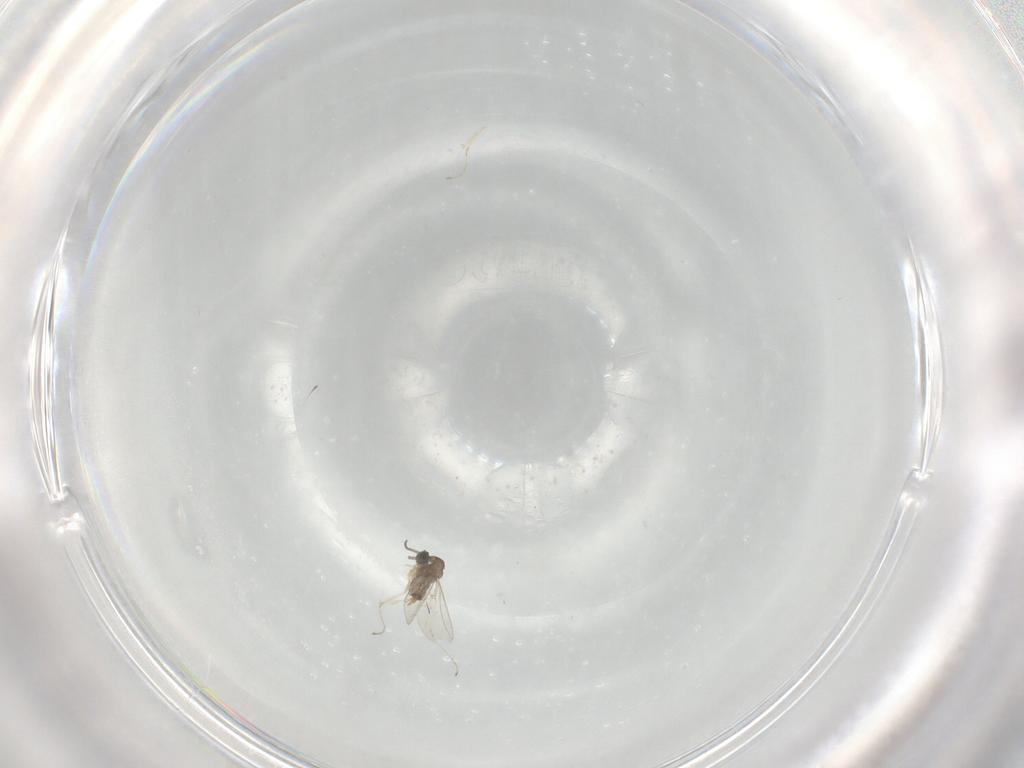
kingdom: Animalia
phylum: Arthropoda
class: Insecta
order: Diptera
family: Cecidomyiidae
